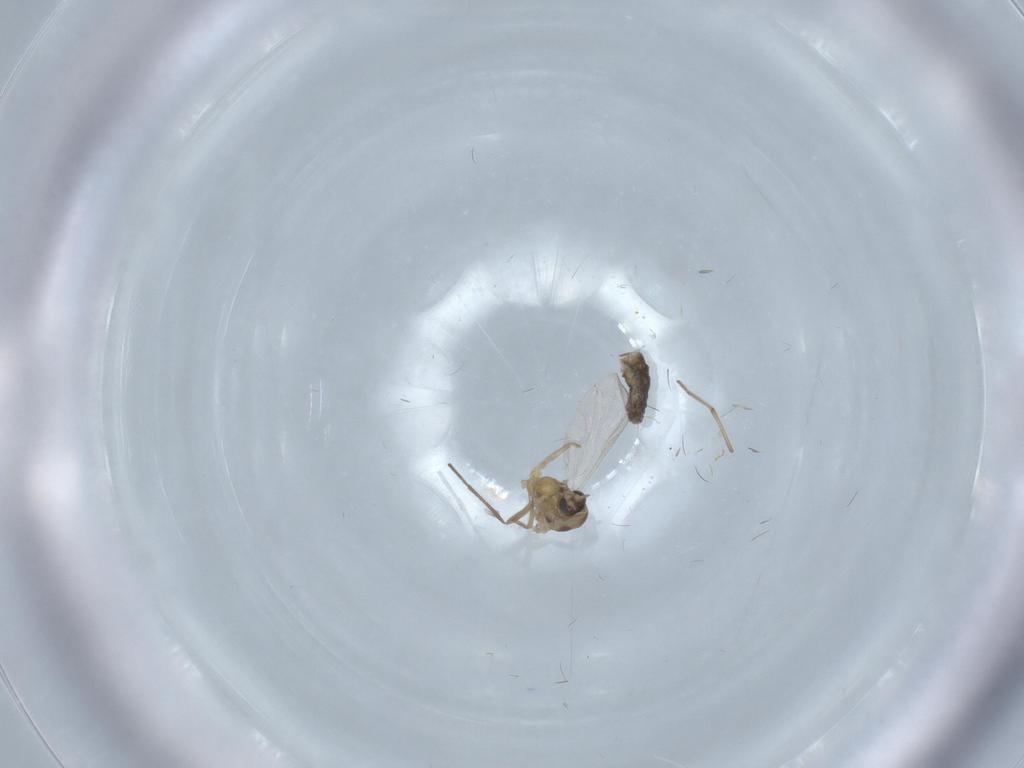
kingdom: Animalia
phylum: Arthropoda
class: Insecta
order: Diptera
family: Chironomidae
